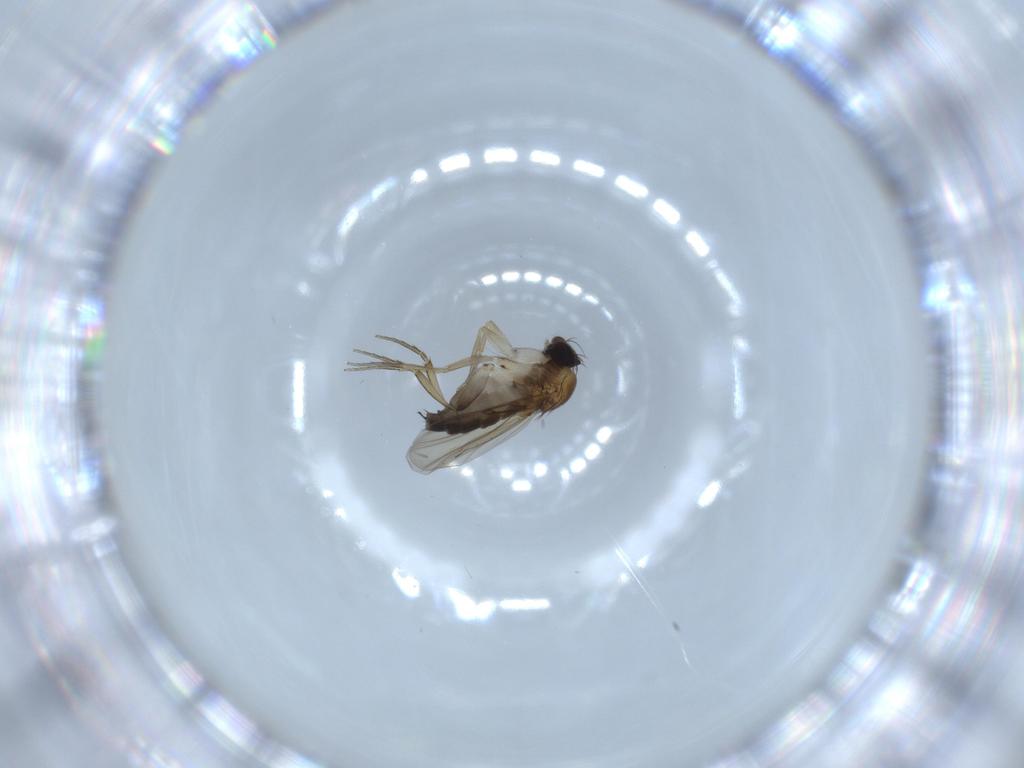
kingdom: Animalia
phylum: Arthropoda
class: Insecta
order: Diptera
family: Phoridae
